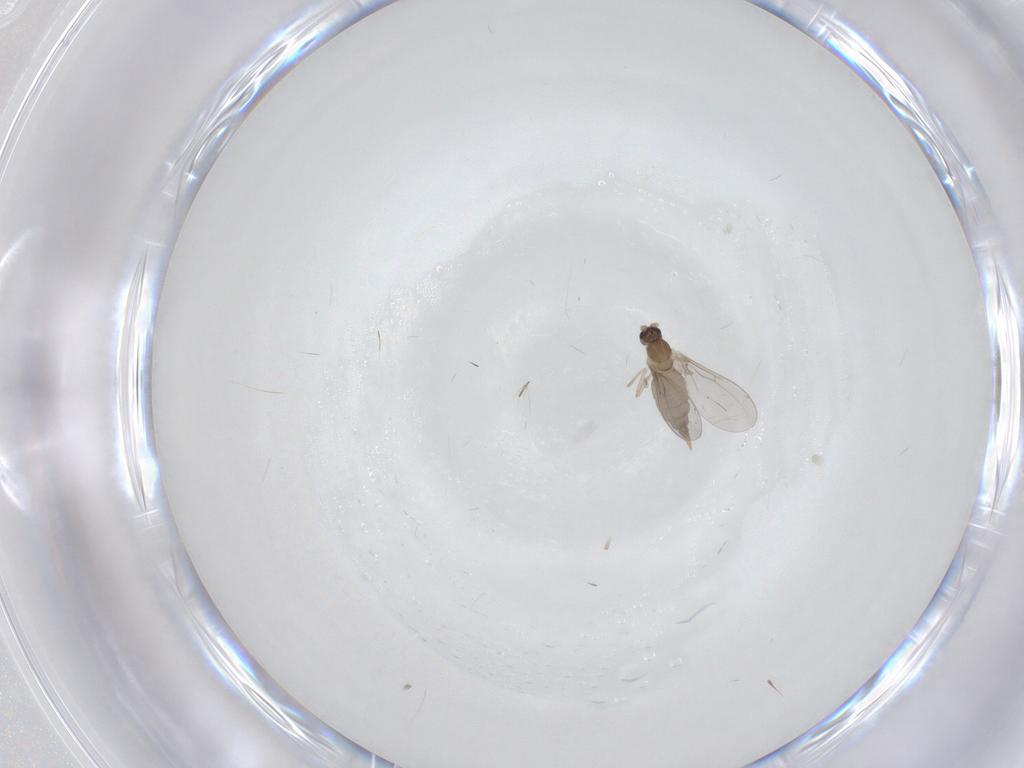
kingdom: Animalia
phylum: Arthropoda
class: Insecta
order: Diptera
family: Cecidomyiidae
